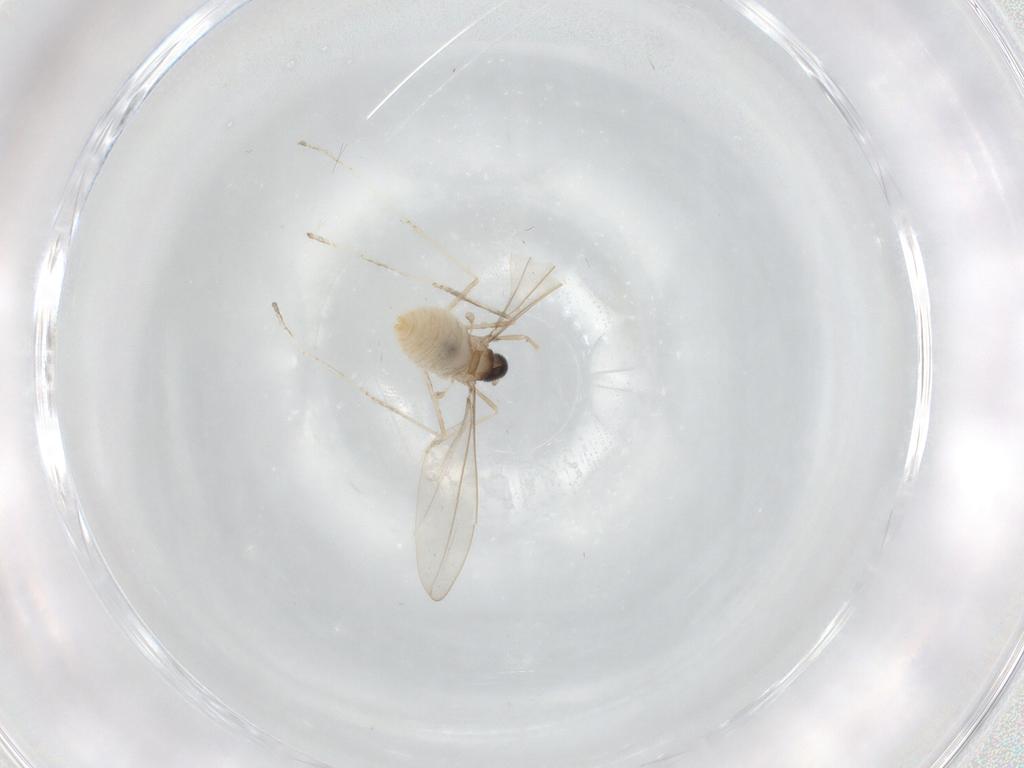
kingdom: Animalia
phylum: Arthropoda
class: Insecta
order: Diptera
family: Cecidomyiidae
